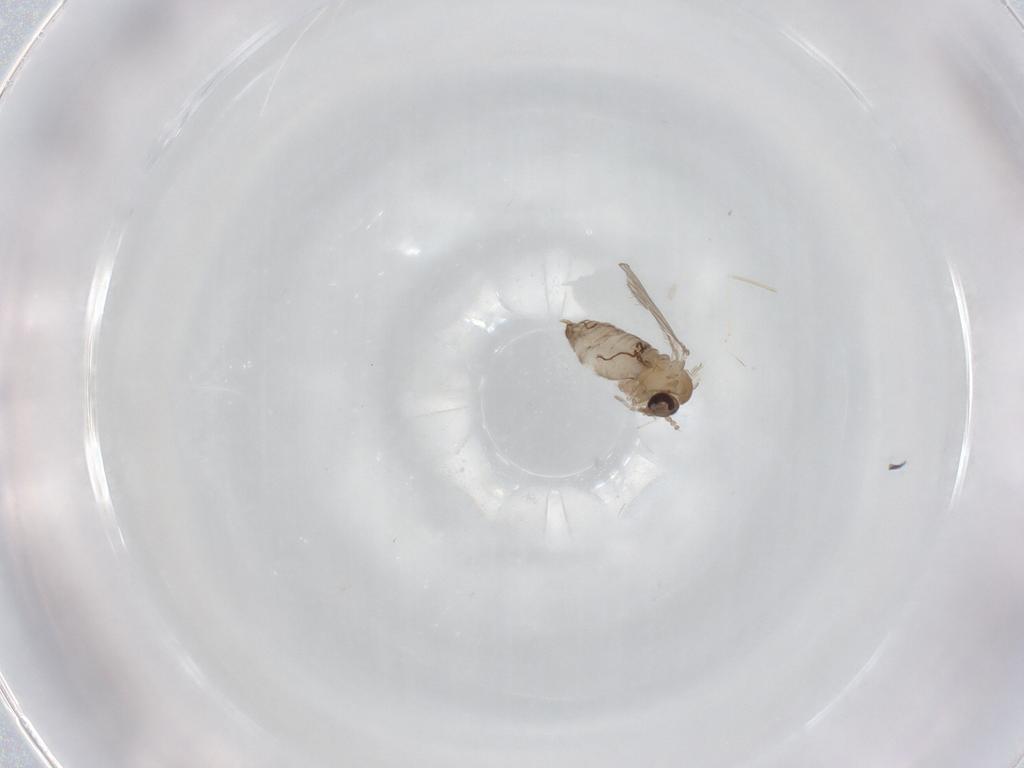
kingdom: Animalia
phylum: Arthropoda
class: Insecta
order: Diptera
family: Psychodidae
